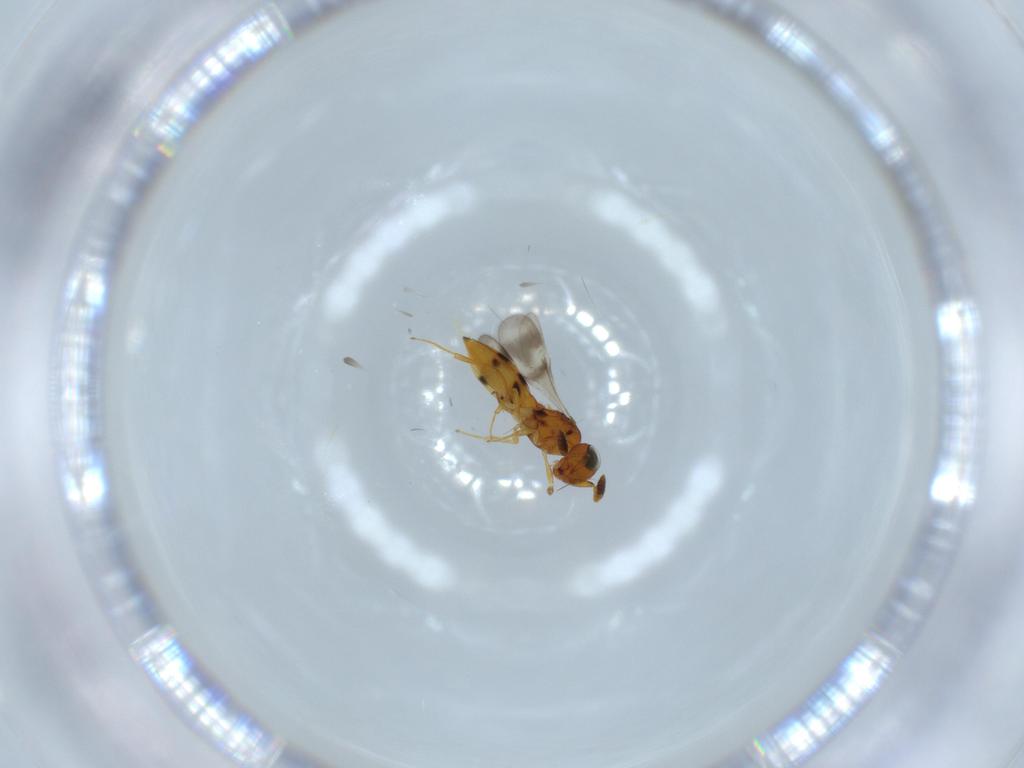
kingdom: Animalia
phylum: Arthropoda
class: Insecta
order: Hymenoptera
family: Scelionidae
